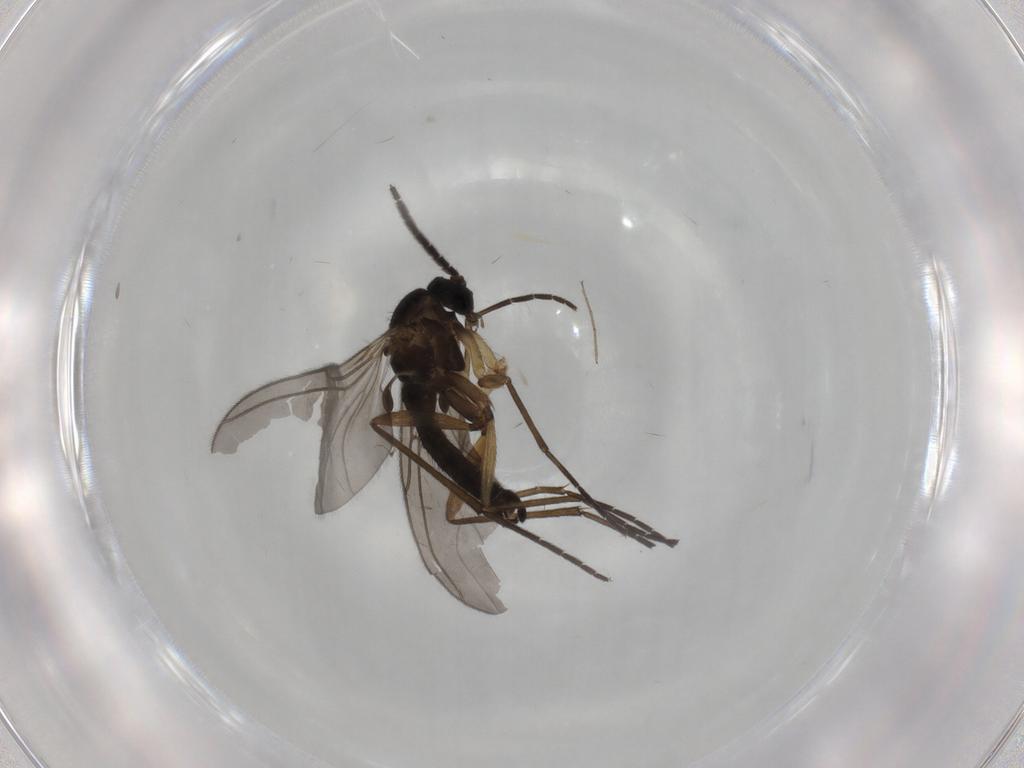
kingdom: Animalia
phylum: Arthropoda
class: Insecta
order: Diptera
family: Sciaridae
